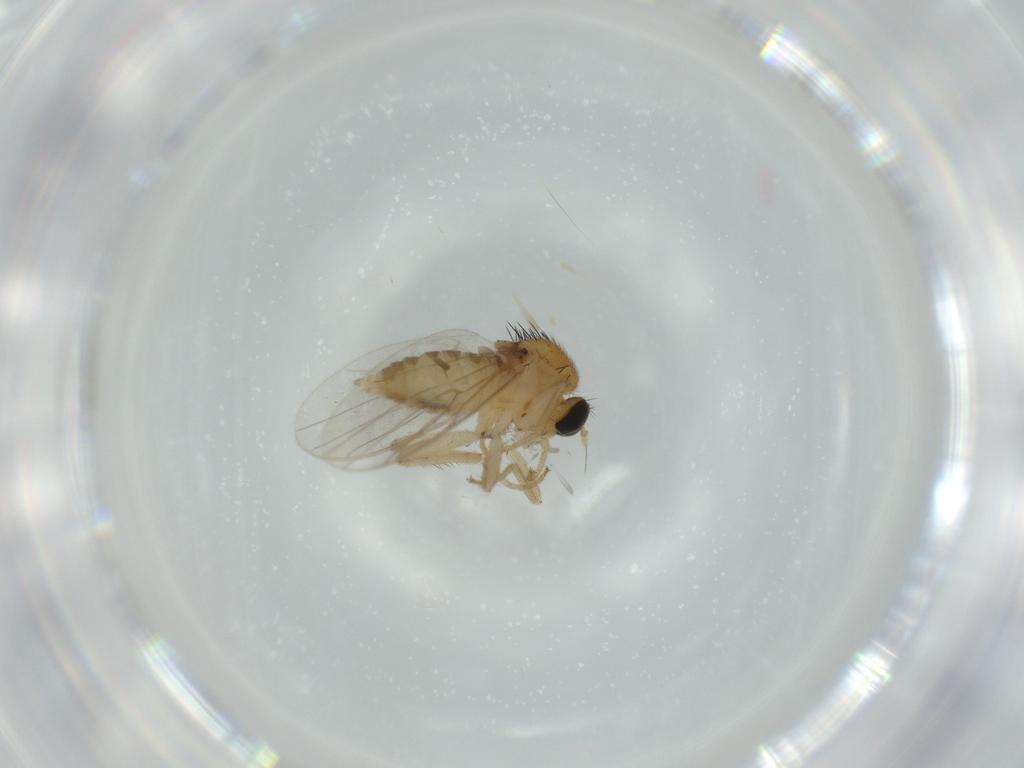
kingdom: Animalia
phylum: Arthropoda
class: Insecta
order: Diptera
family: Hybotidae
